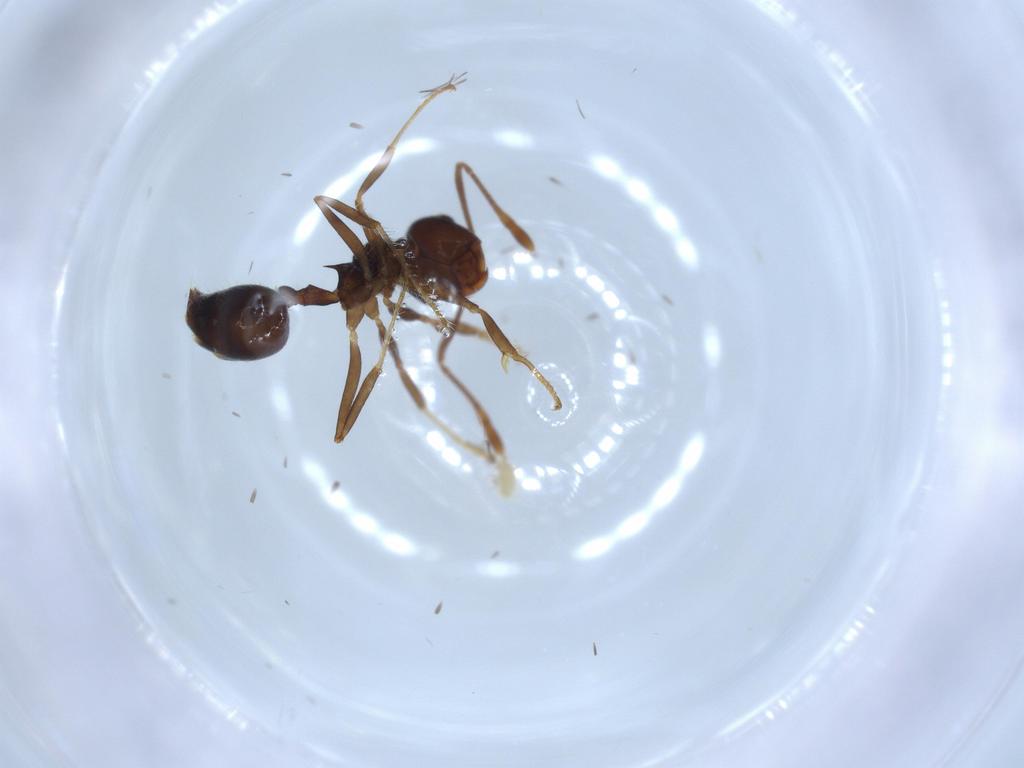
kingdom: Animalia
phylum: Arthropoda
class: Insecta
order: Hymenoptera
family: Formicidae
